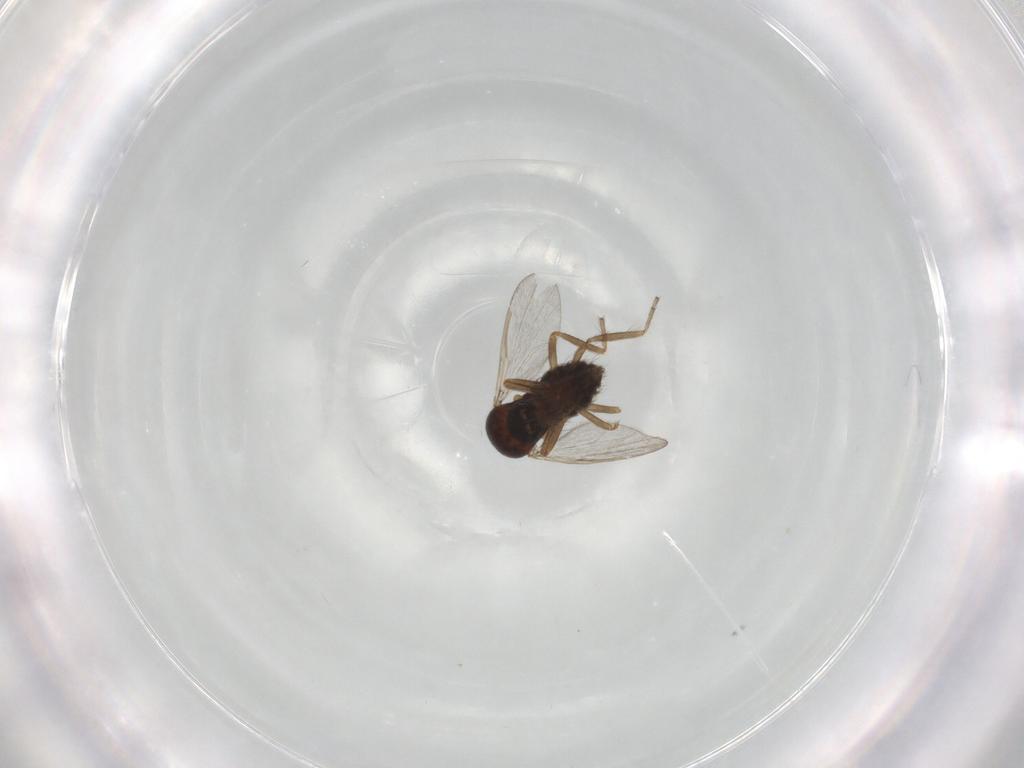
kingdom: Animalia
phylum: Arthropoda
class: Insecta
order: Diptera
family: Ceratopogonidae
